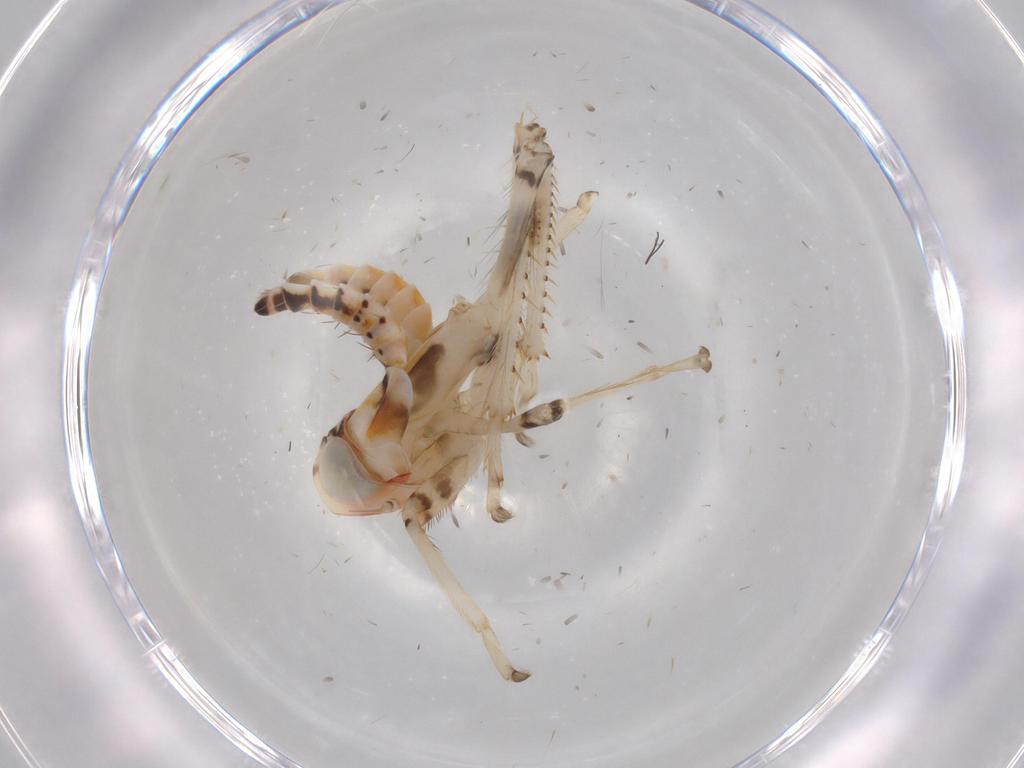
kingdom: Animalia
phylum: Arthropoda
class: Insecta
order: Hemiptera
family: Cicadellidae
